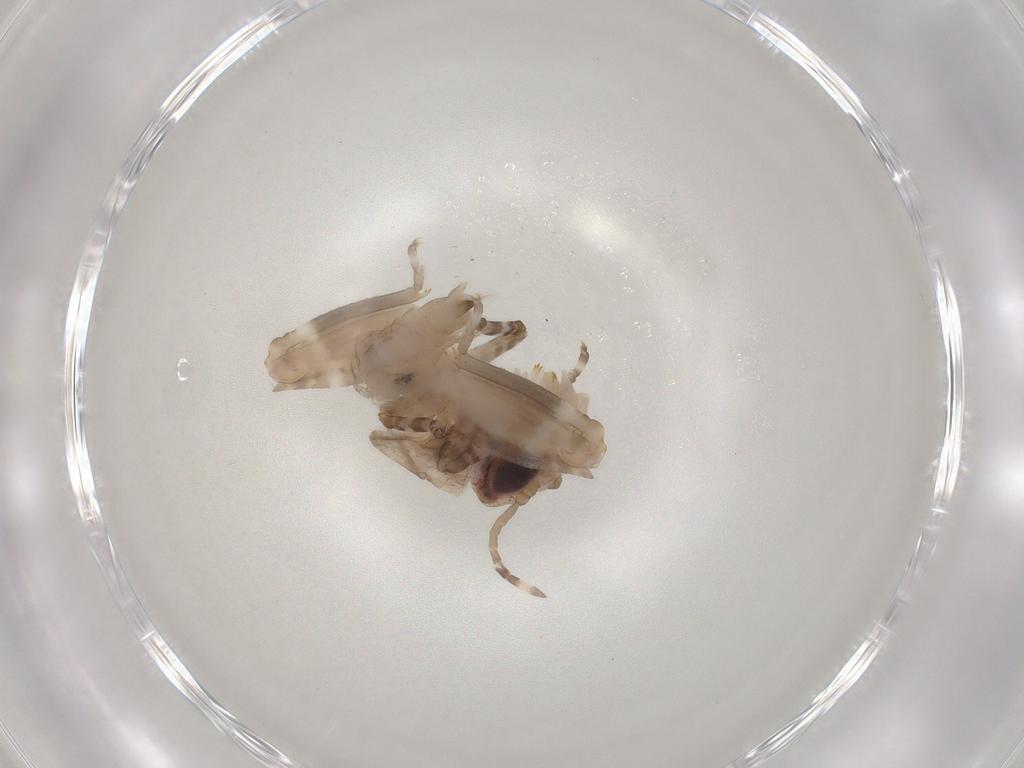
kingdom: Animalia
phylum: Arthropoda
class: Insecta
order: Orthoptera
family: Tetrigidae
